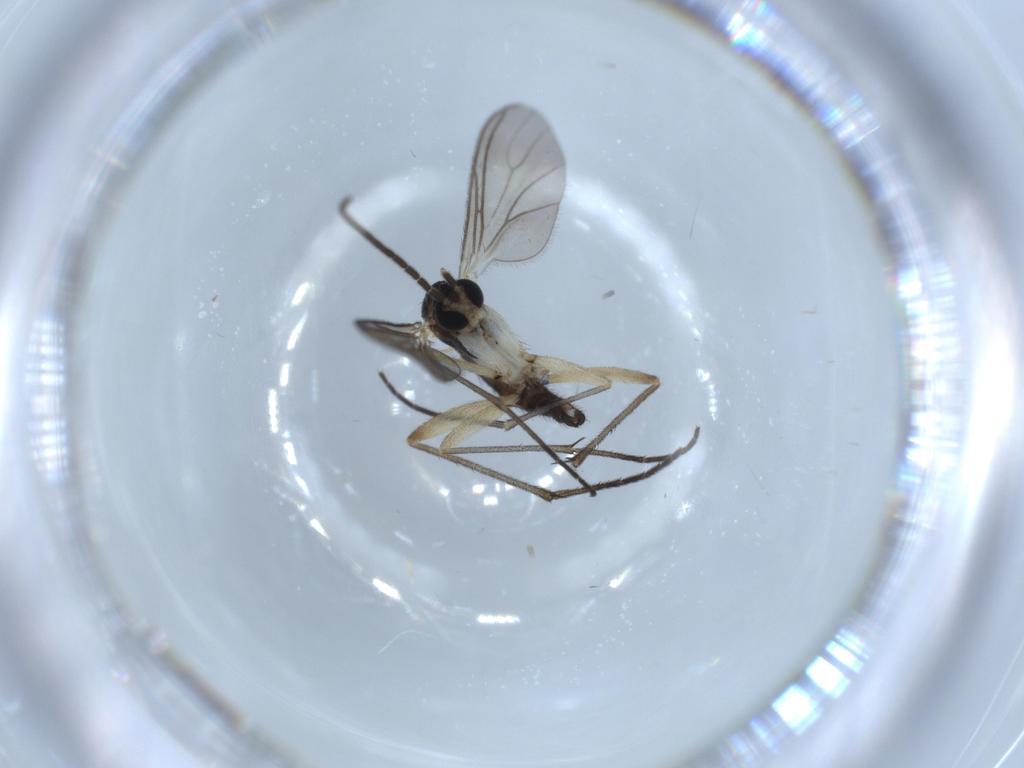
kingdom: Animalia
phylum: Arthropoda
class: Insecta
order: Diptera
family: Sciaridae
